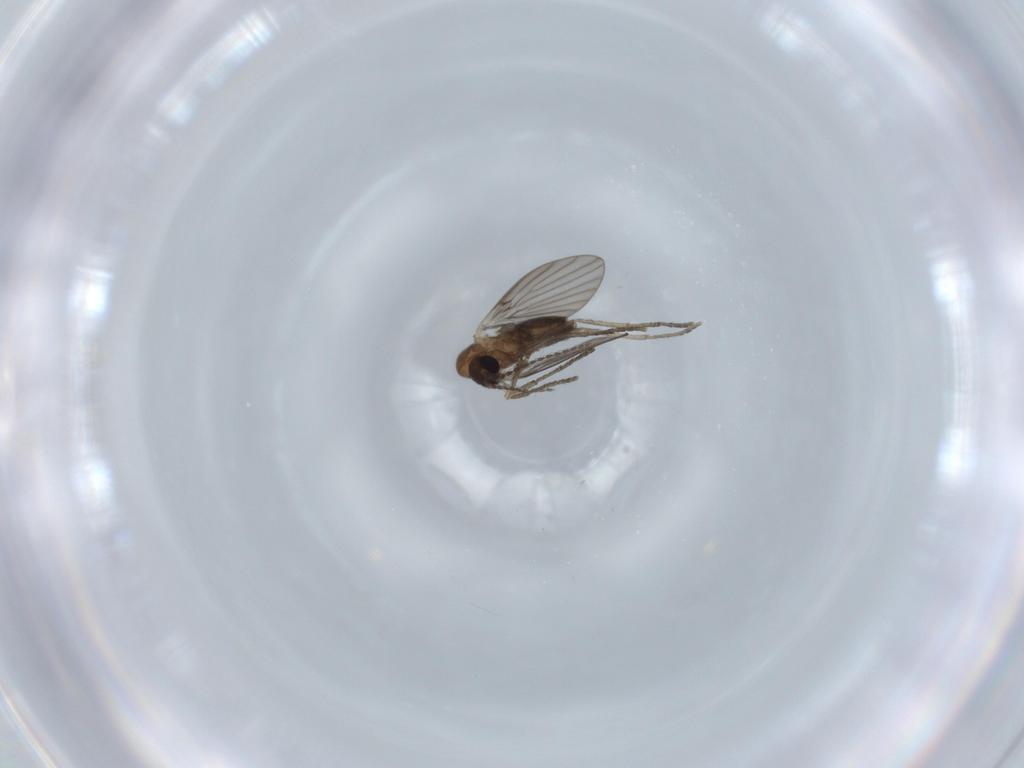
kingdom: Animalia
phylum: Arthropoda
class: Insecta
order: Diptera
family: Psychodidae
